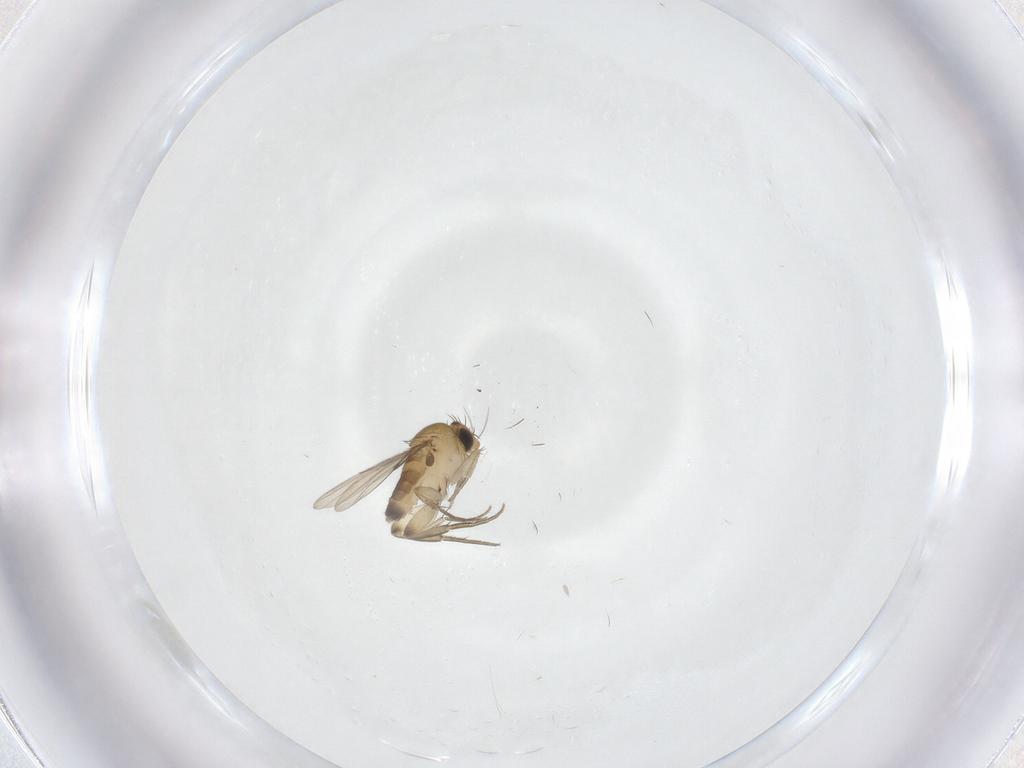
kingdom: Animalia
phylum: Arthropoda
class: Insecta
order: Diptera
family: Phoridae
